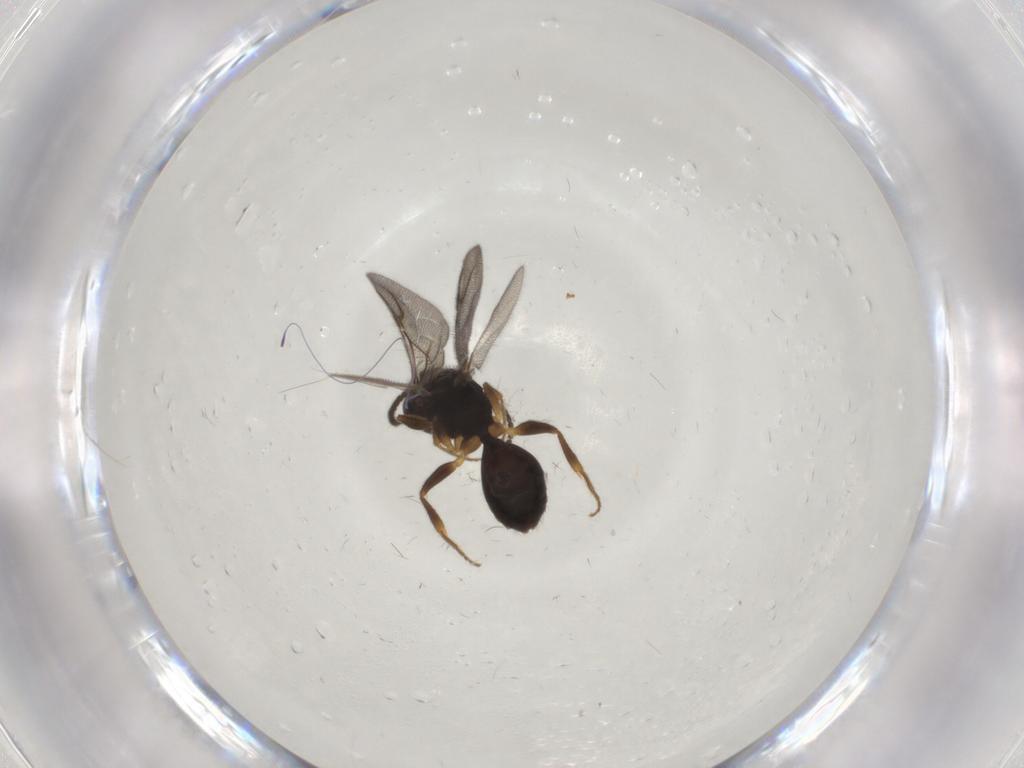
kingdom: Animalia
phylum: Arthropoda
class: Insecta
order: Hymenoptera
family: Bethylidae
